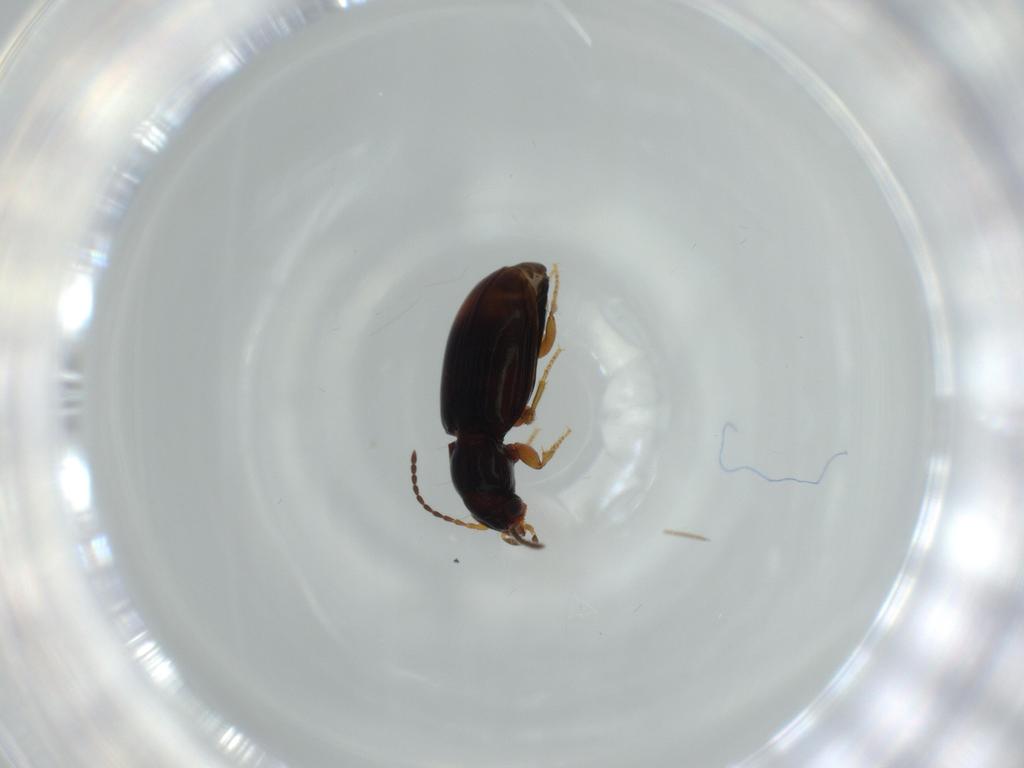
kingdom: Animalia
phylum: Arthropoda
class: Insecta
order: Coleoptera
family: Carabidae
